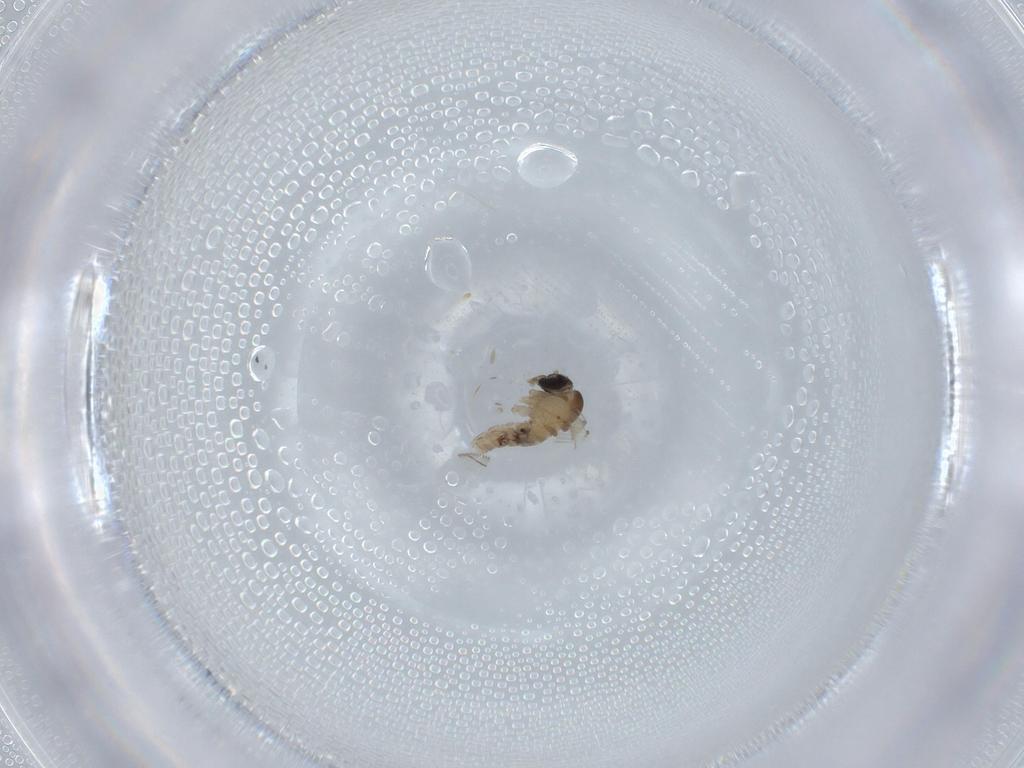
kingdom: Animalia
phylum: Arthropoda
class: Insecta
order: Diptera
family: Psychodidae
